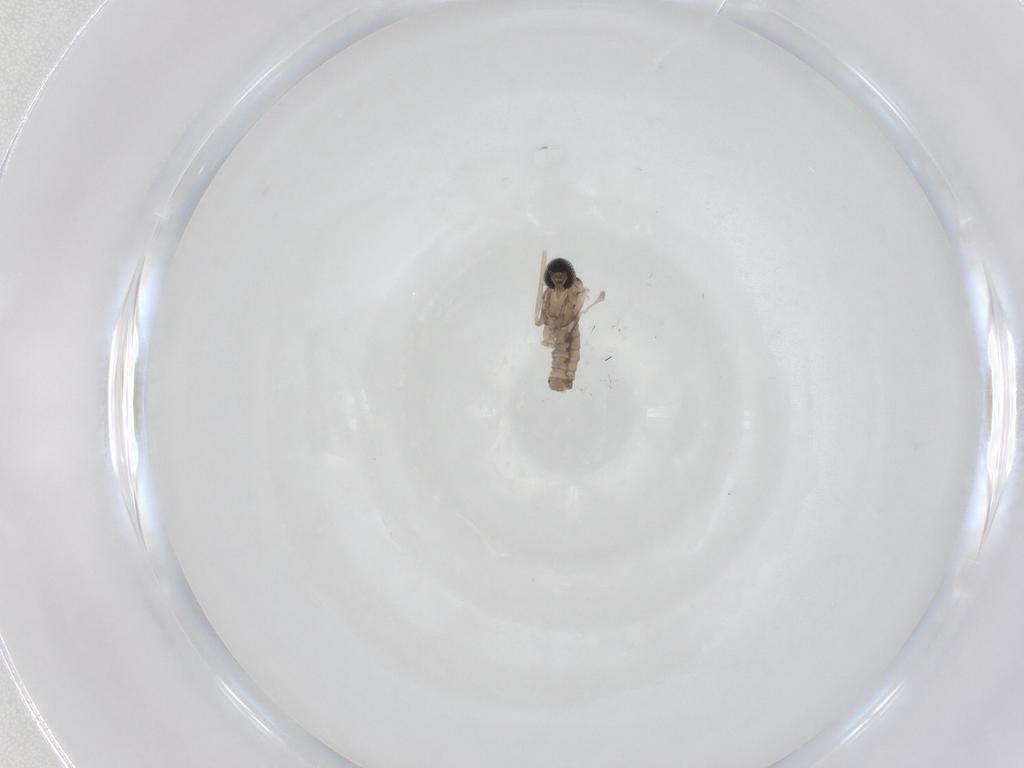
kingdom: Animalia
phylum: Arthropoda
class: Insecta
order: Diptera
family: Cecidomyiidae
